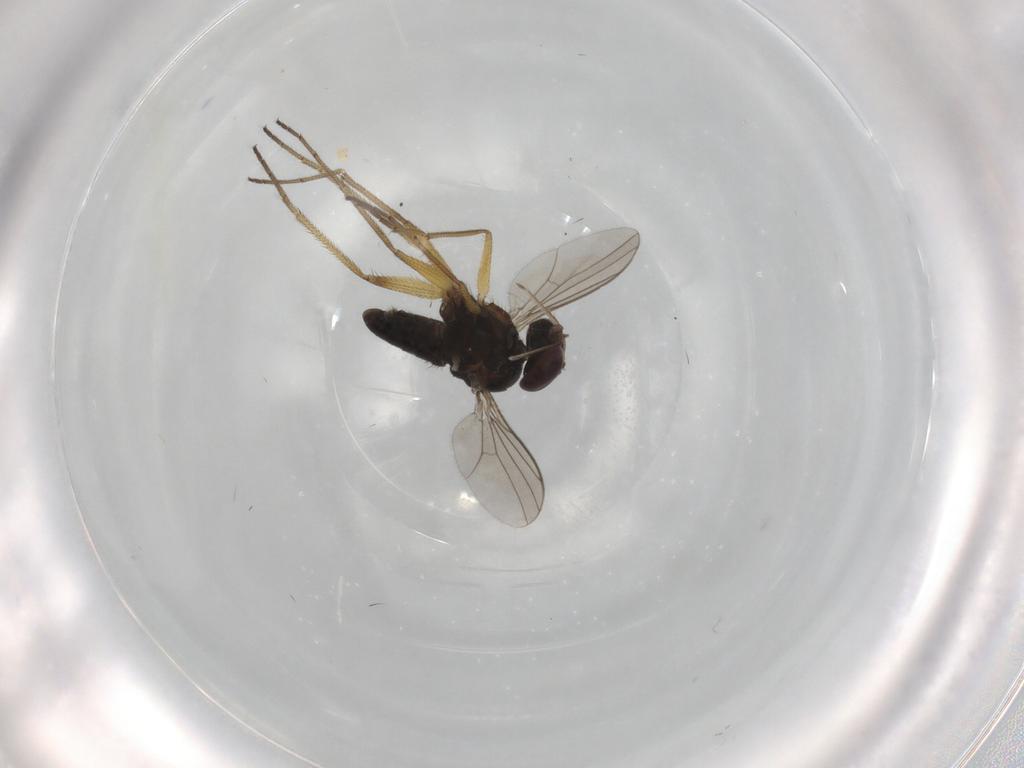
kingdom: Animalia
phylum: Arthropoda
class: Insecta
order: Diptera
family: Dolichopodidae
